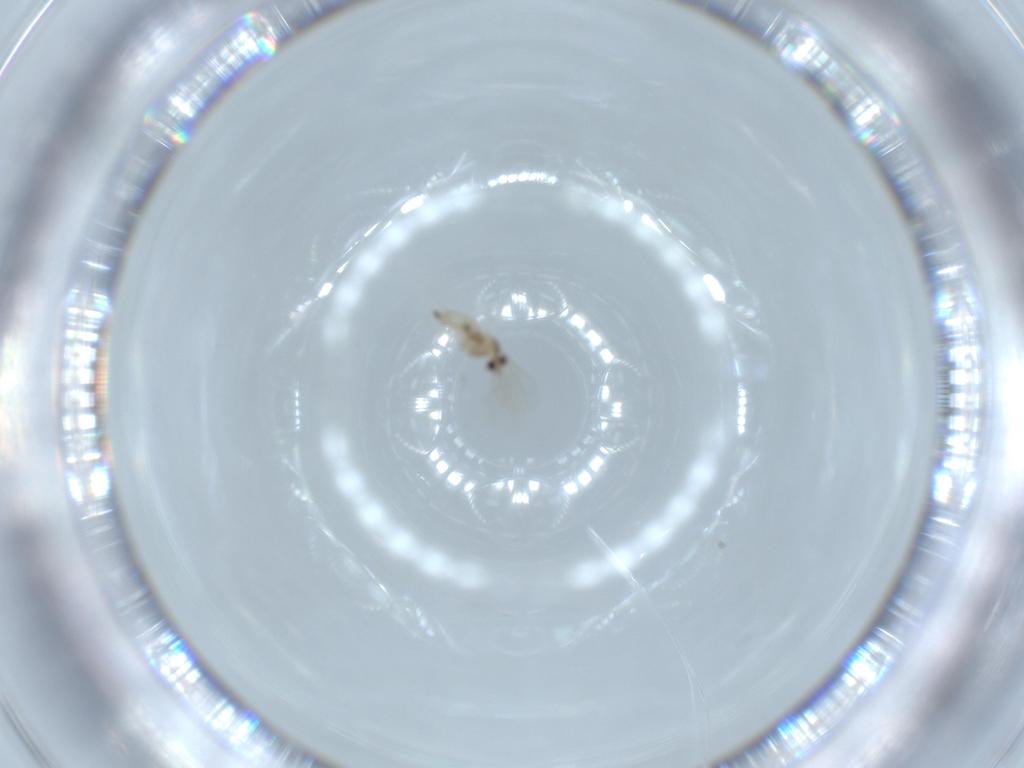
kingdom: Animalia
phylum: Arthropoda
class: Insecta
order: Diptera
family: Cecidomyiidae
